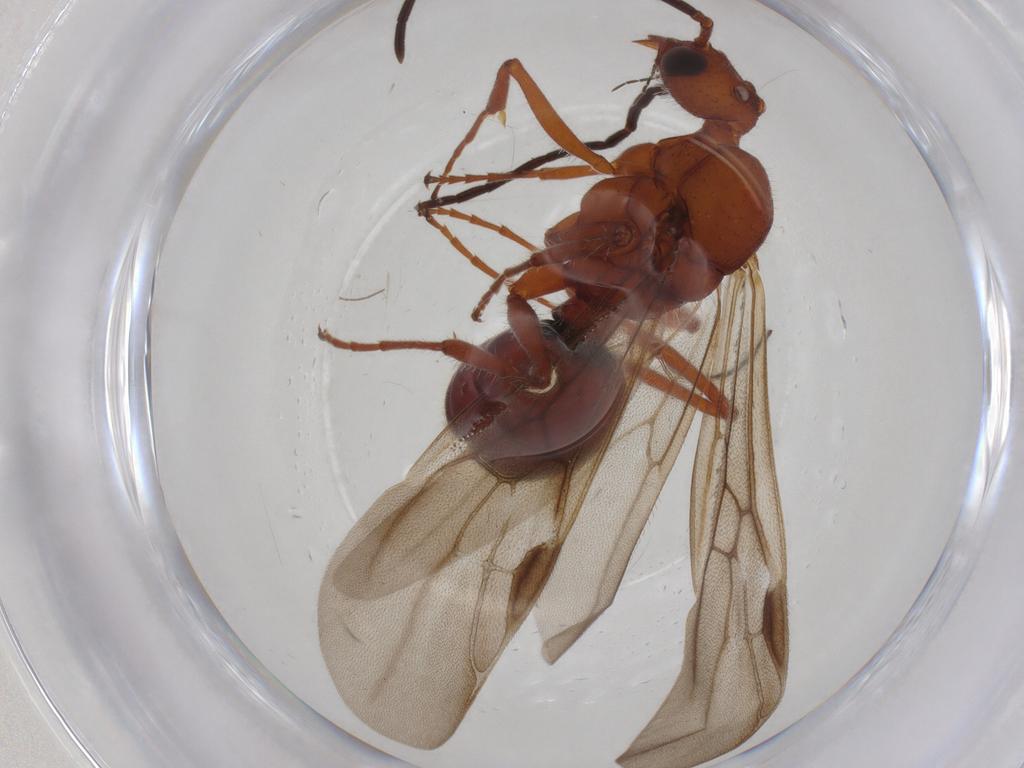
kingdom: Animalia
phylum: Arthropoda
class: Insecta
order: Hymenoptera
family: Formicidae
